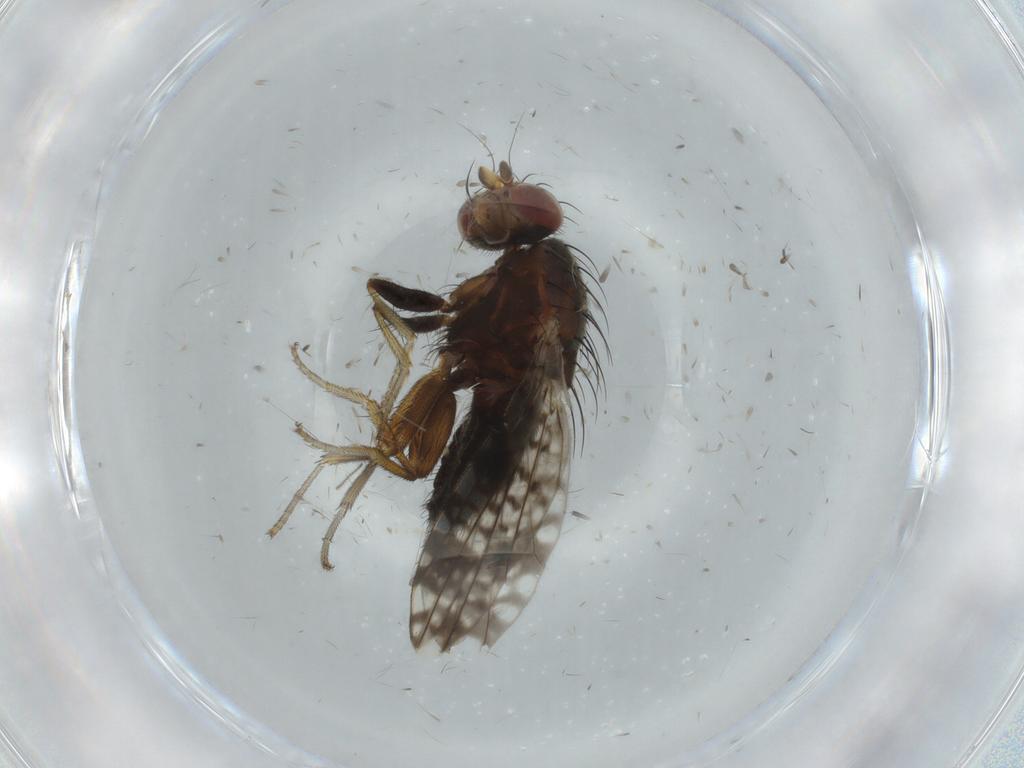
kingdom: Animalia
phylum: Arthropoda
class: Insecta
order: Diptera
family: Tephritidae
